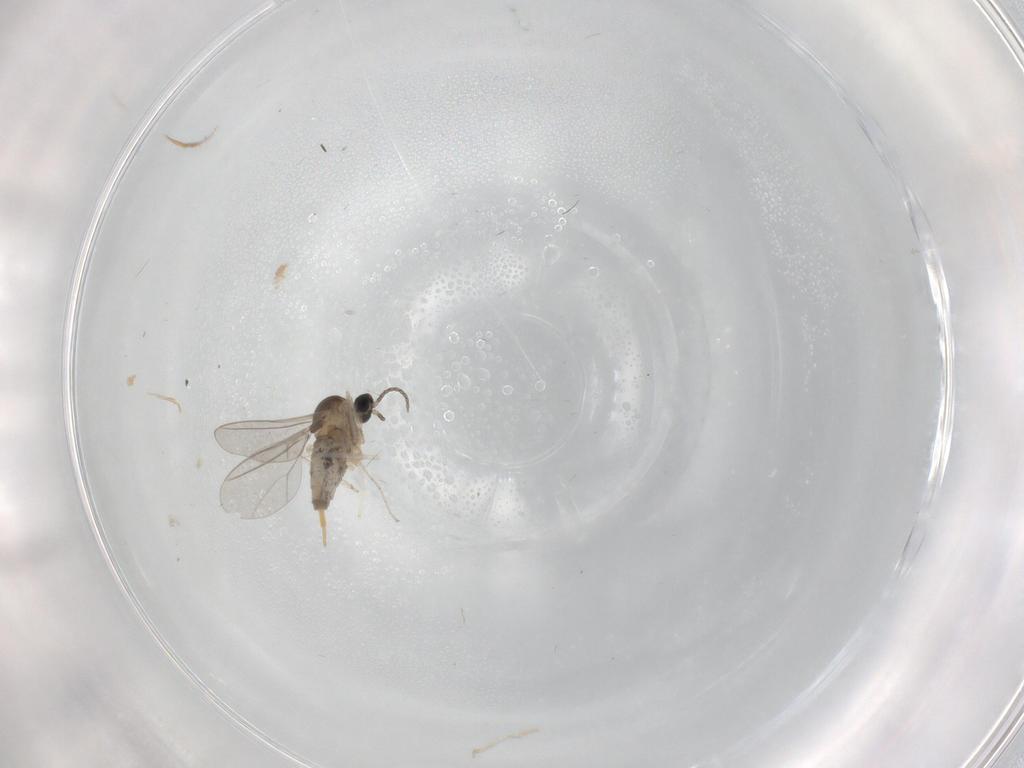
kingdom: Animalia
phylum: Arthropoda
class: Insecta
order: Diptera
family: Cecidomyiidae
